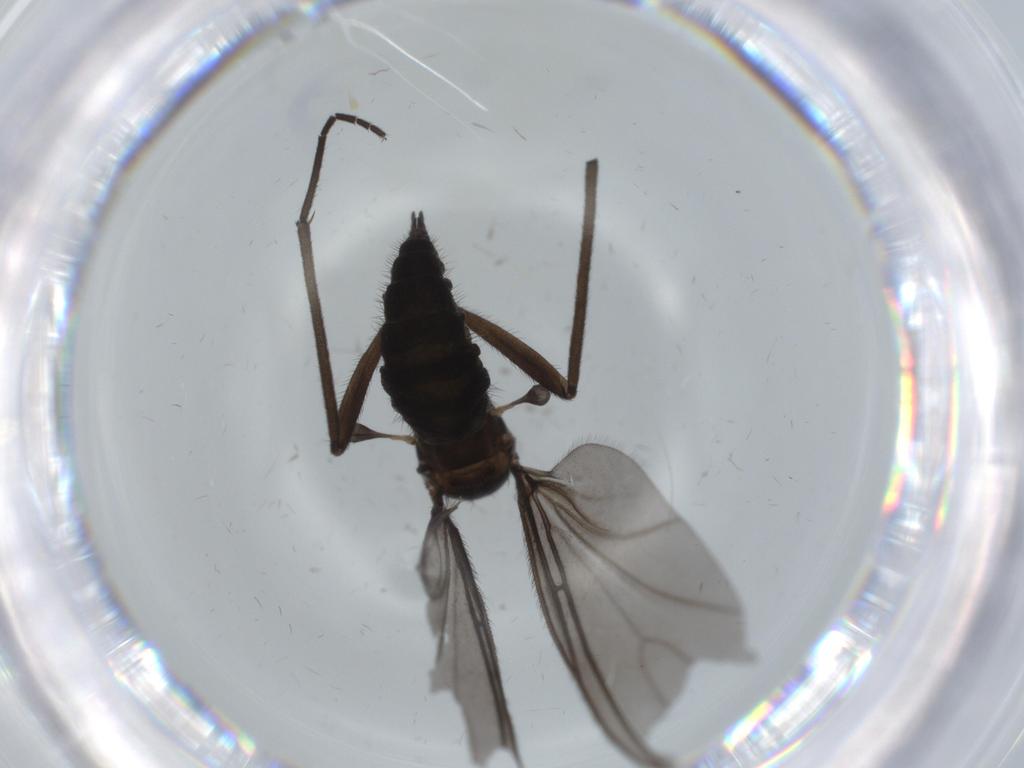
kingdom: Animalia
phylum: Arthropoda
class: Insecta
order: Diptera
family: Sciaridae
